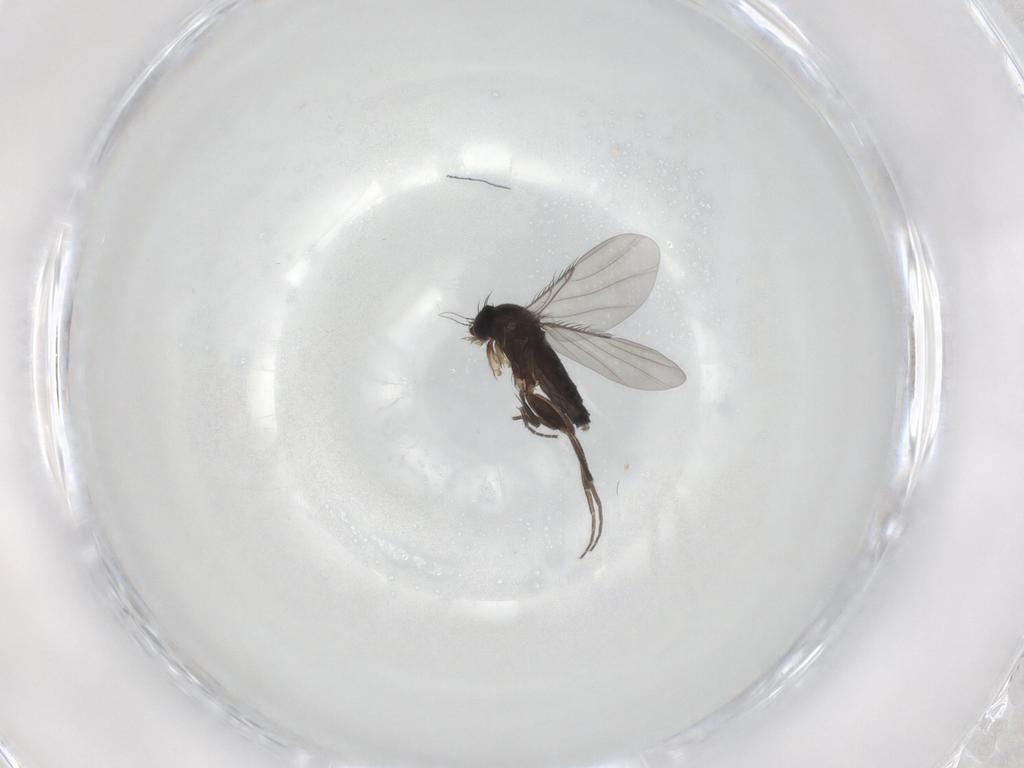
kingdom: Animalia
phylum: Arthropoda
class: Insecta
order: Diptera
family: Phoridae
